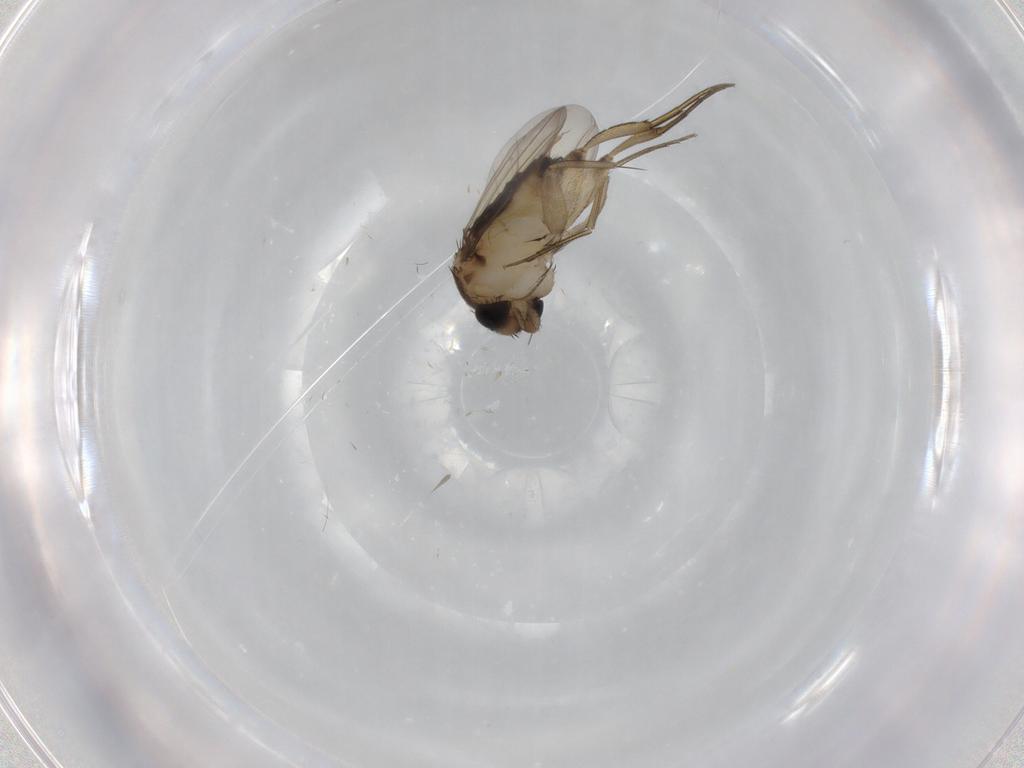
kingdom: Animalia
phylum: Arthropoda
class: Insecta
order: Diptera
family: Phoridae
